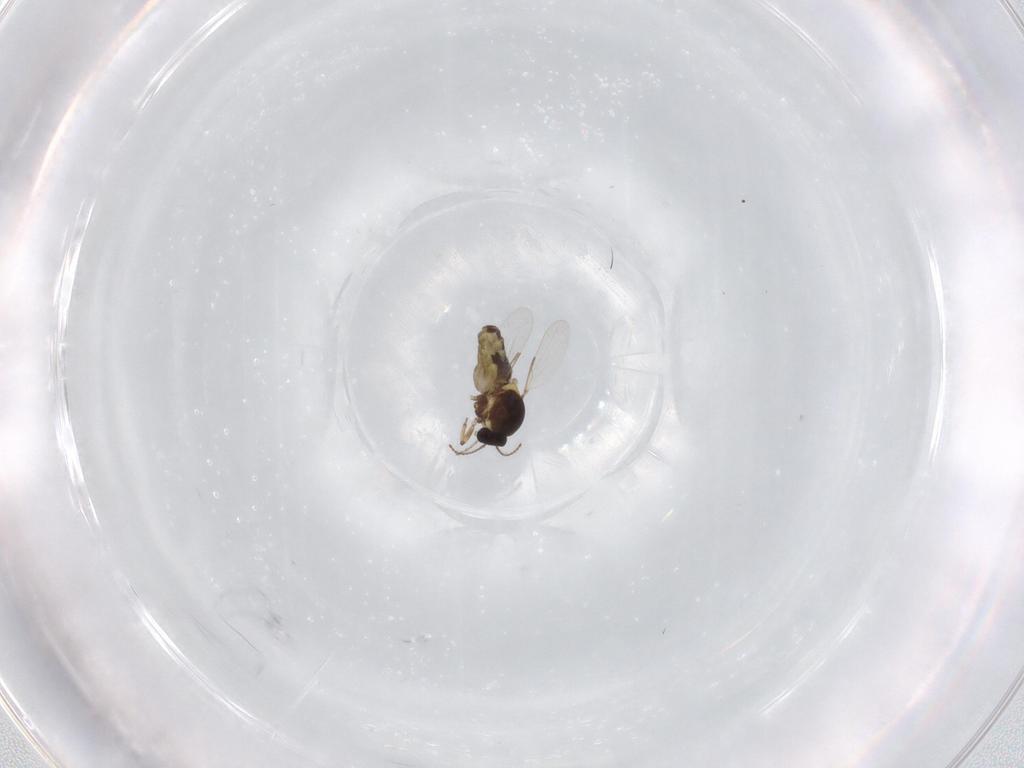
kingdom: Animalia
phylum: Arthropoda
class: Insecta
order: Diptera
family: Ceratopogonidae
